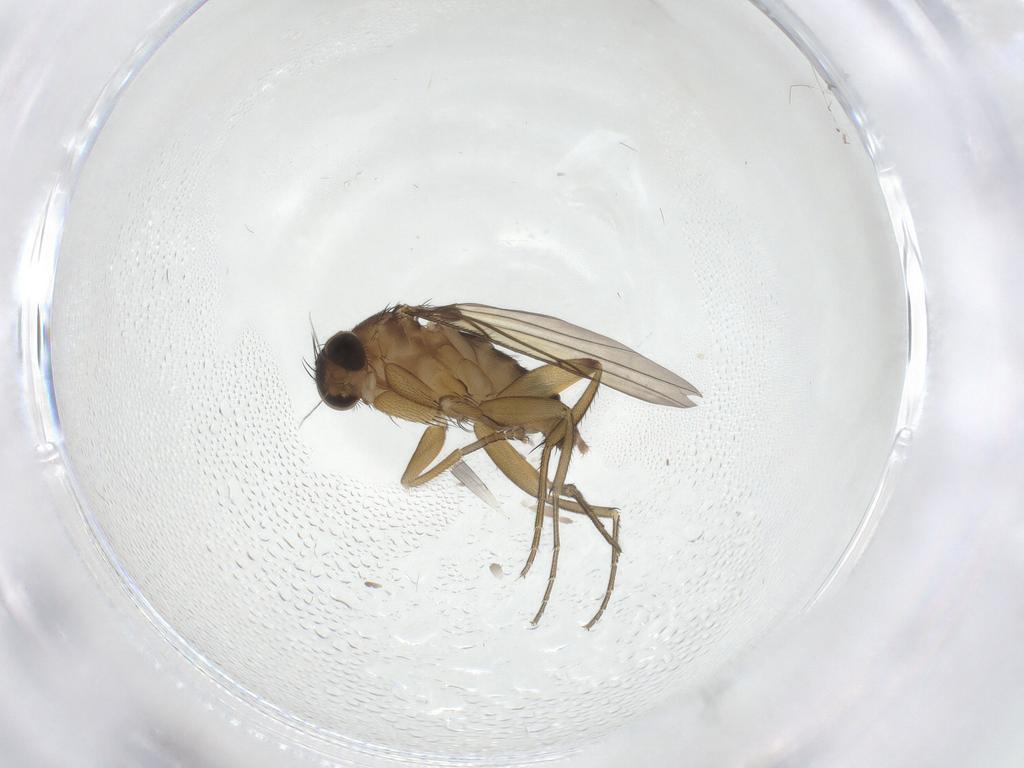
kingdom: Animalia
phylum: Arthropoda
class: Insecta
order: Diptera
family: Phoridae
